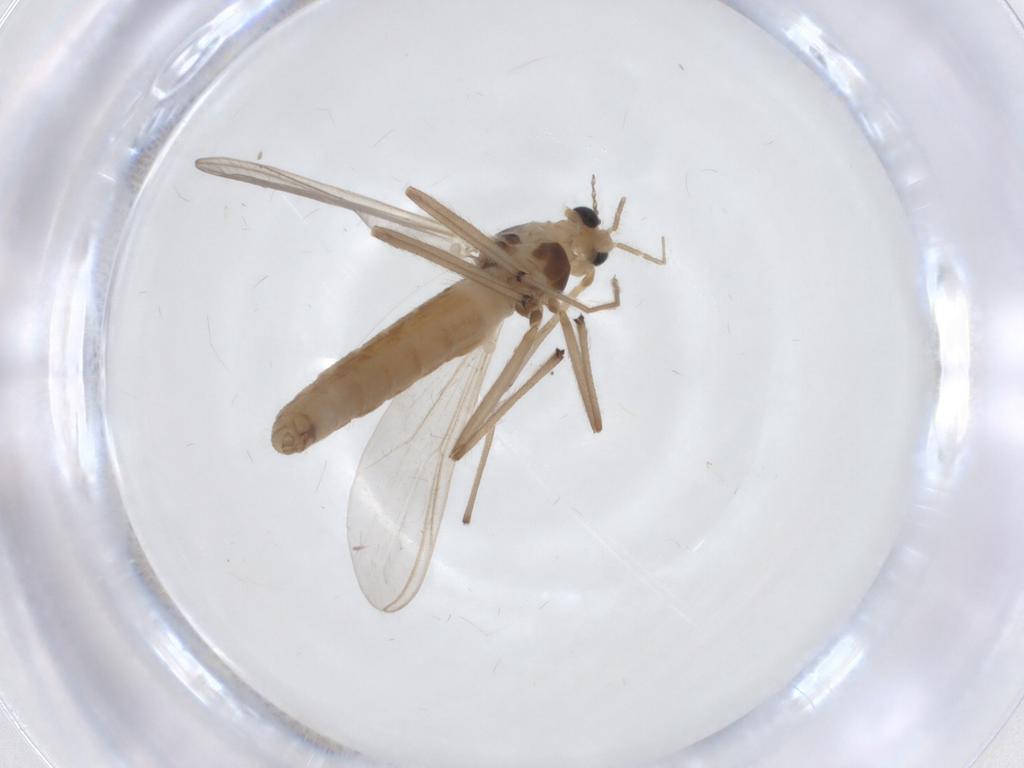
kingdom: Animalia
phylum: Arthropoda
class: Insecta
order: Diptera
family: Chironomidae
